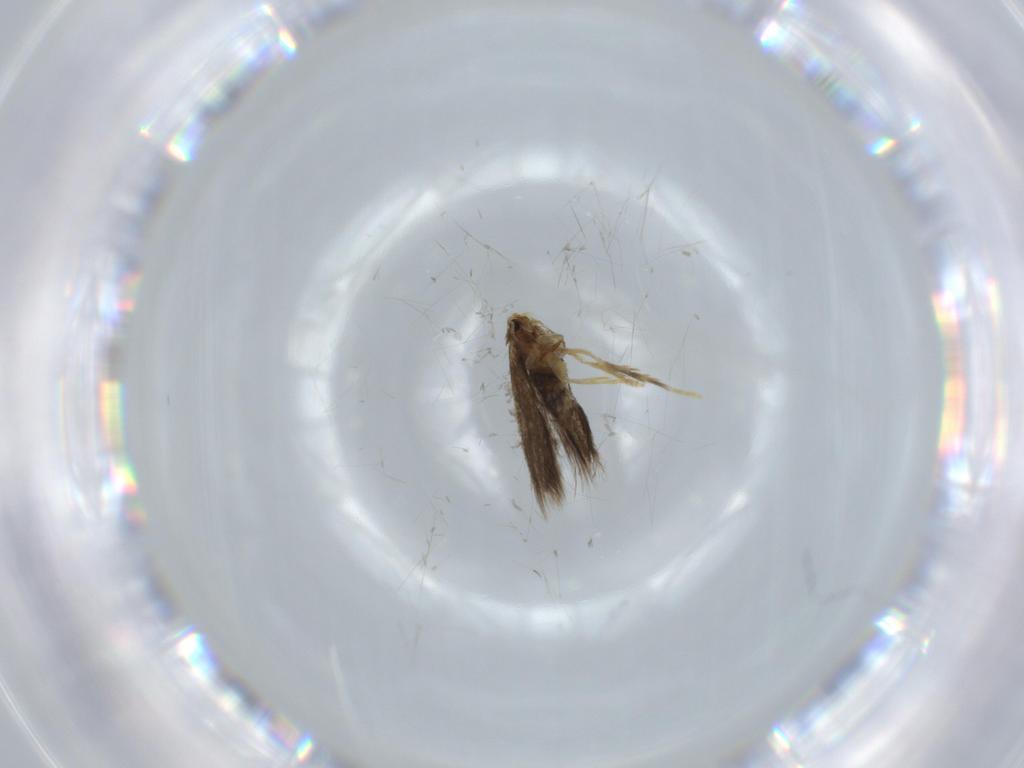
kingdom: Animalia
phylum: Arthropoda
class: Insecta
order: Lepidoptera
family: Nepticulidae
